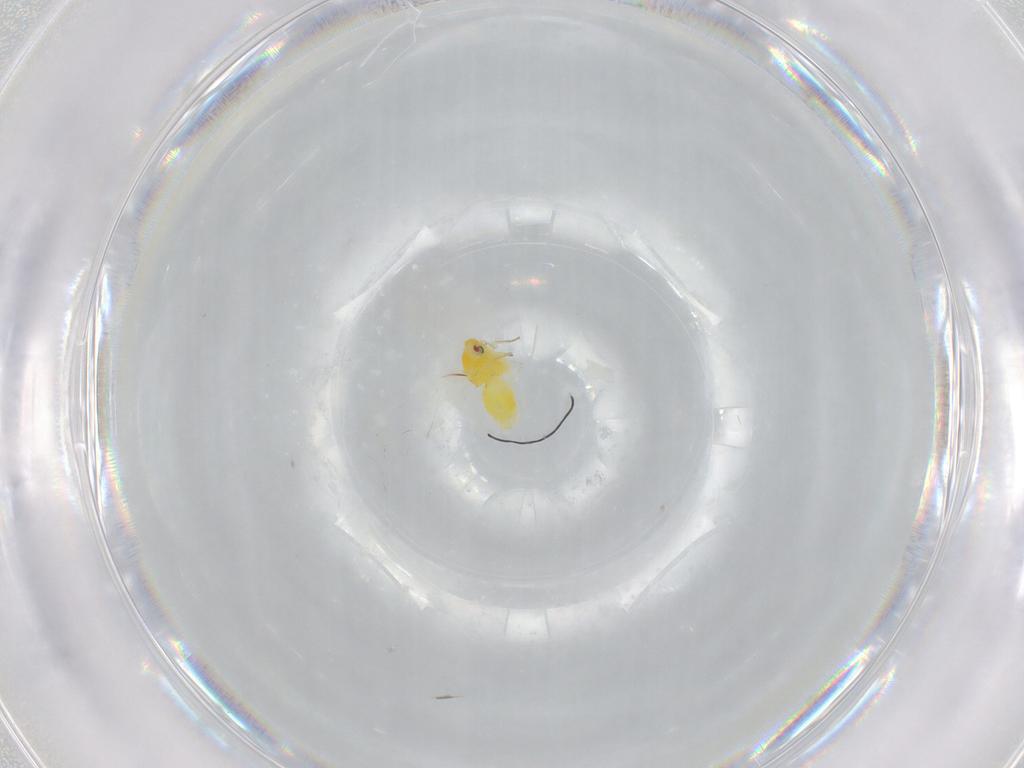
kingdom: Animalia
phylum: Arthropoda
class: Insecta
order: Hemiptera
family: Aleyrodidae
